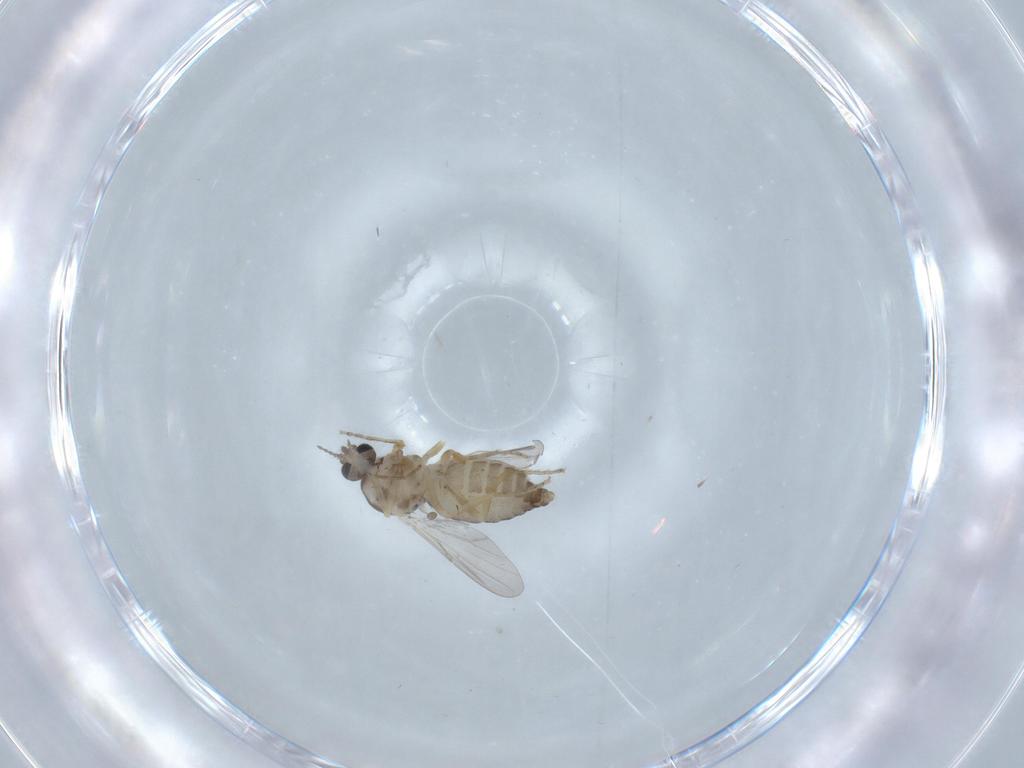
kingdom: Animalia
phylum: Arthropoda
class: Insecta
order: Diptera
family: Ceratopogonidae
